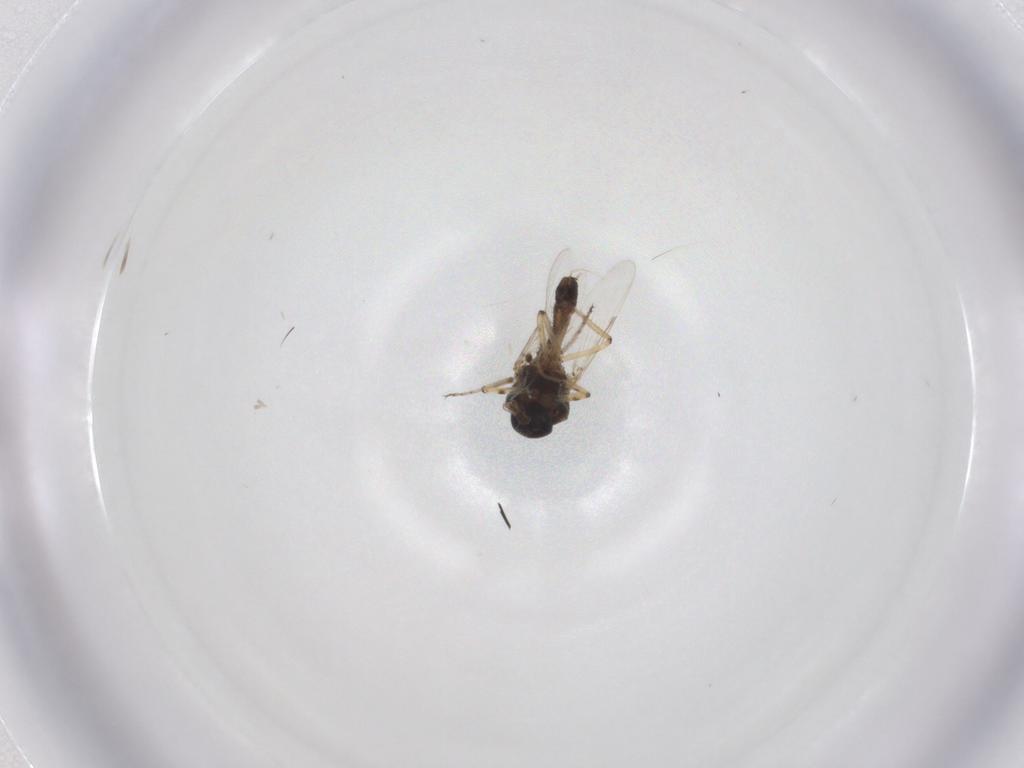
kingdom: Animalia
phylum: Arthropoda
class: Insecta
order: Diptera
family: Ceratopogonidae
